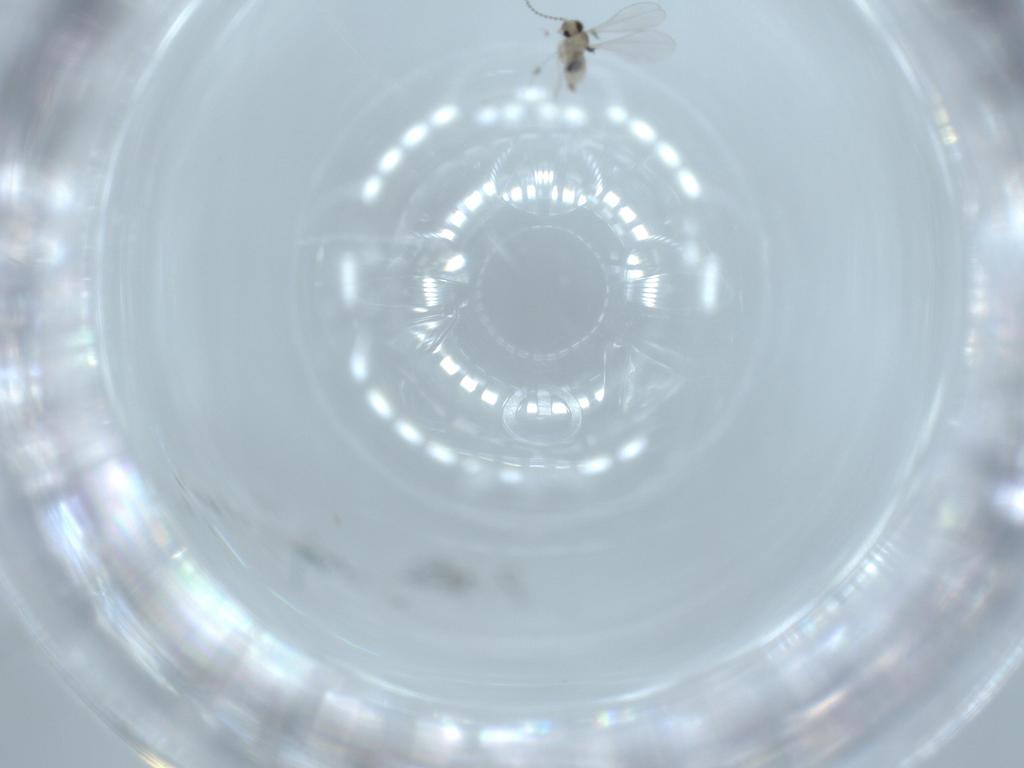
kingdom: Animalia
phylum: Arthropoda
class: Insecta
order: Diptera
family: Cecidomyiidae
